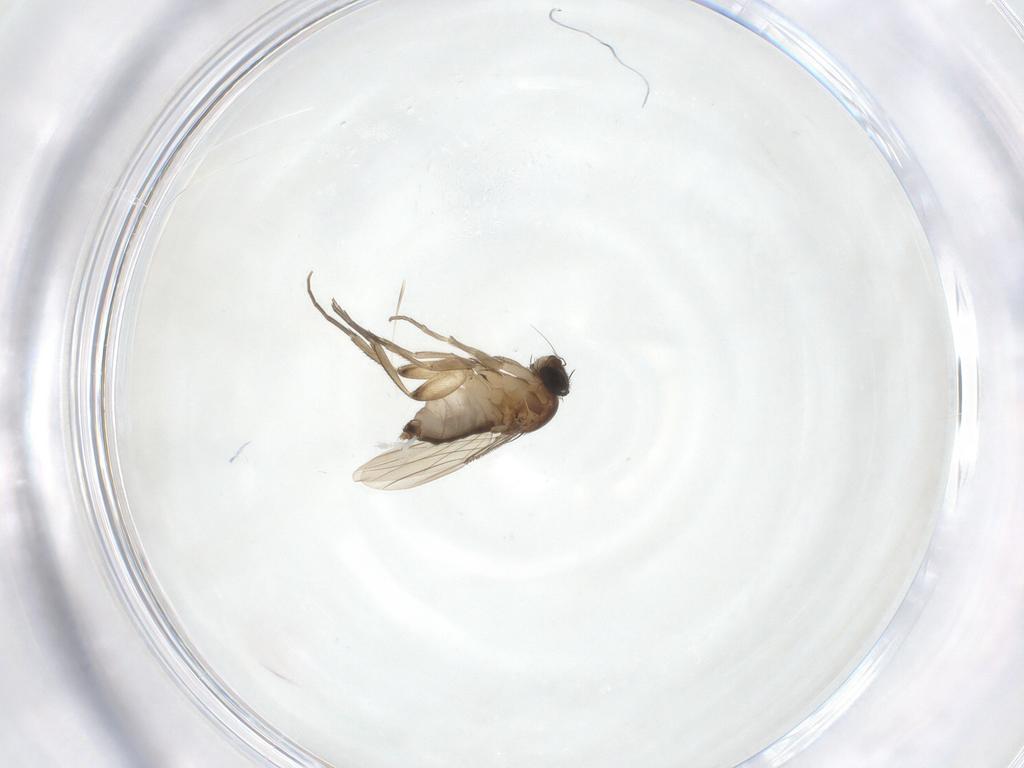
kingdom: Animalia
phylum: Arthropoda
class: Insecta
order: Diptera
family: Phoridae
